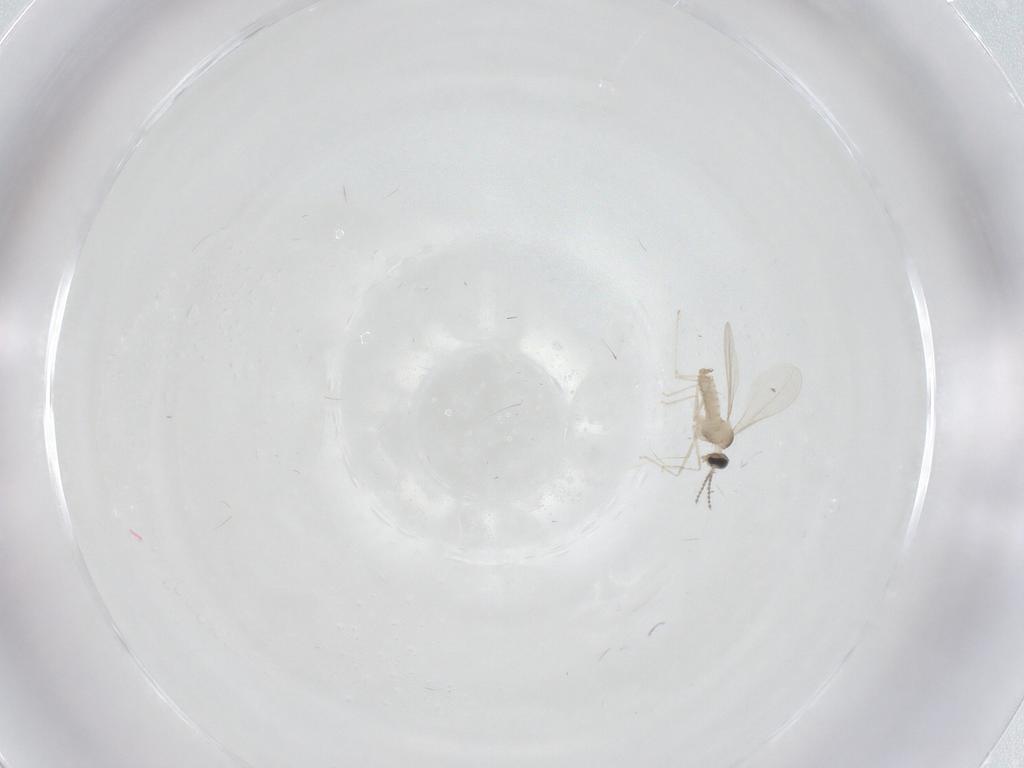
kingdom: Animalia
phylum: Arthropoda
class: Insecta
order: Diptera
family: Cecidomyiidae
